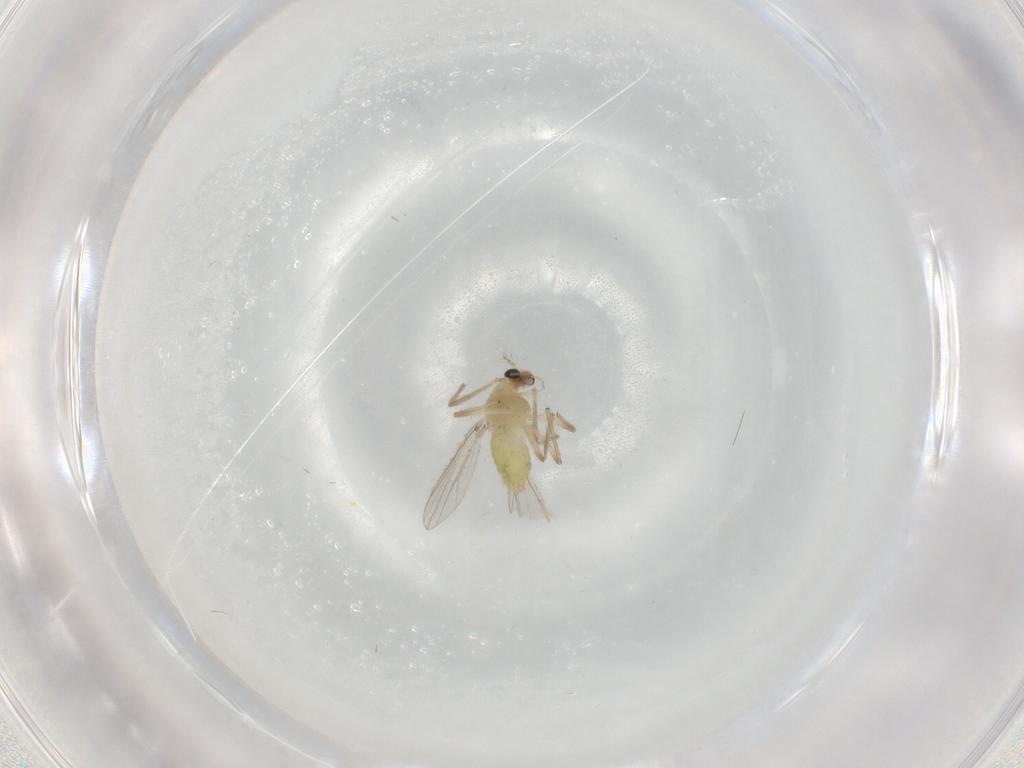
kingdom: Animalia
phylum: Arthropoda
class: Insecta
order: Diptera
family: Chironomidae
